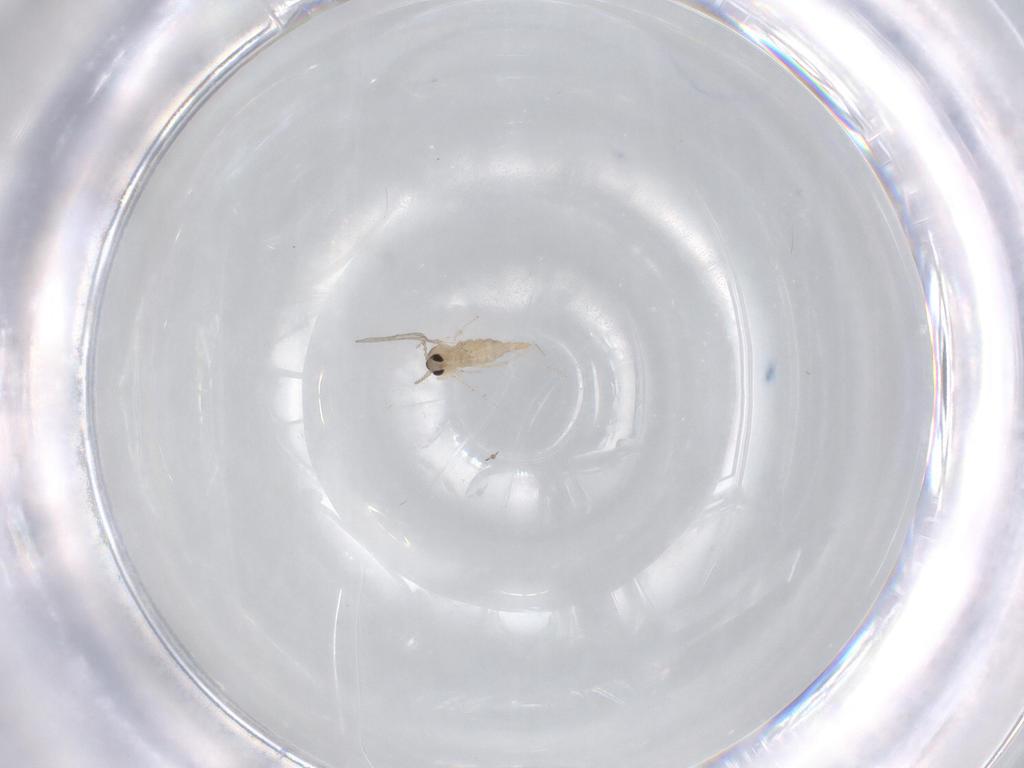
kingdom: Animalia
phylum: Arthropoda
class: Insecta
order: Diptera
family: Cecidomyiidae
